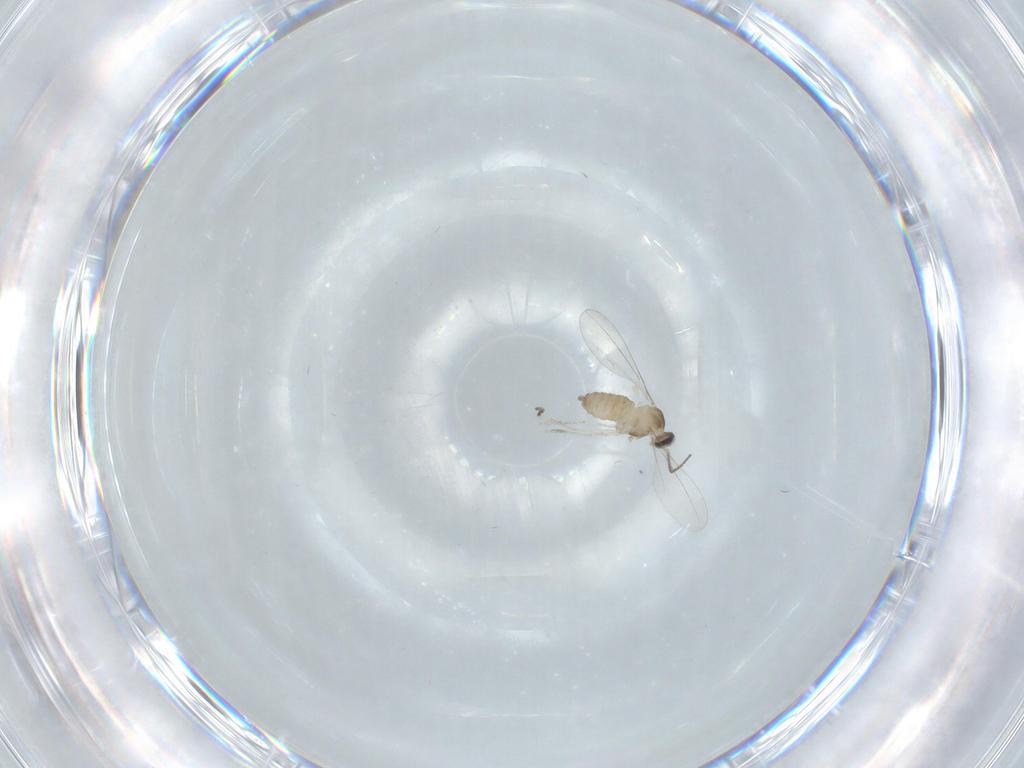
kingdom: Animalia
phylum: Arthropoda
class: Insecta
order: Diptera
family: Cecidomyiidae
